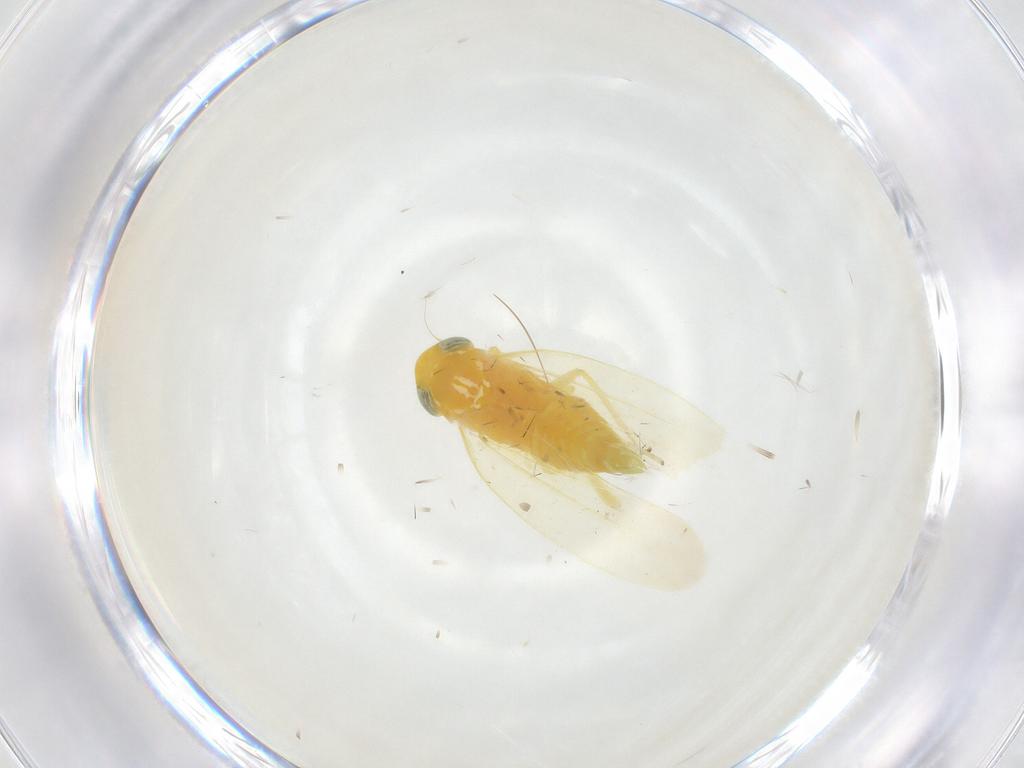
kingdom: Animalia
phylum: Arthropoda
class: Insecta
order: Hemiptera
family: Cicadellidae
